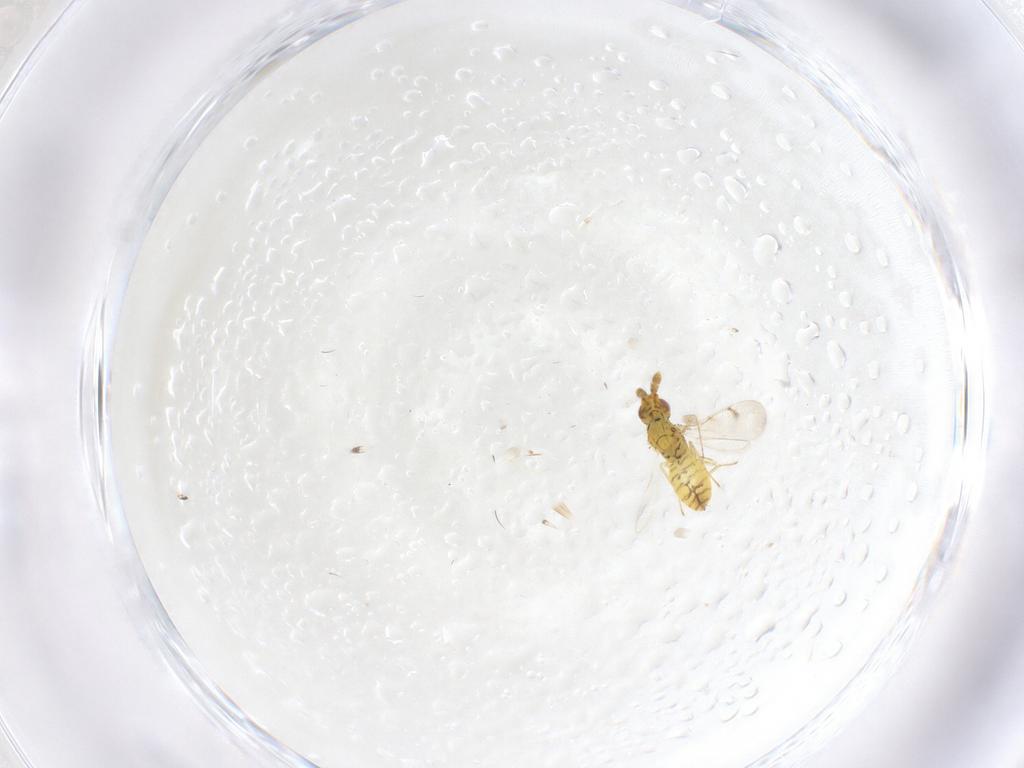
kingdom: Animalia
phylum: Arthropoda
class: Insecta
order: Hymenoptera
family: Eulophidae
